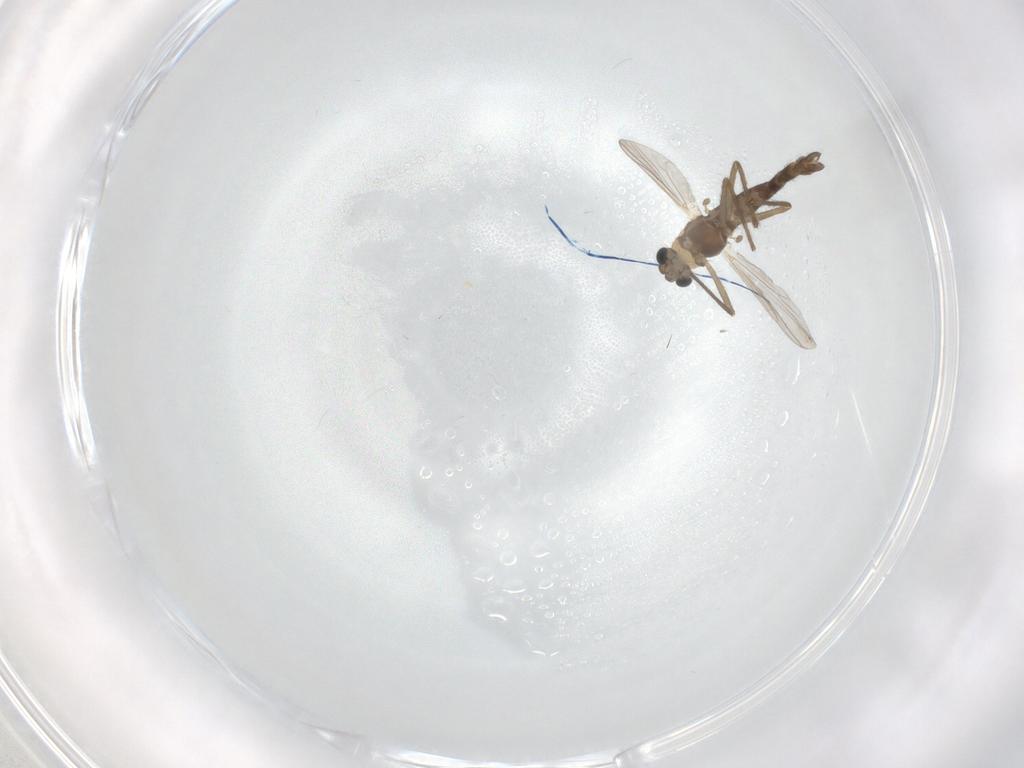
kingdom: Animalia
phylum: Arthropoda
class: Insecta
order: Diptera
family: Chironomidae
